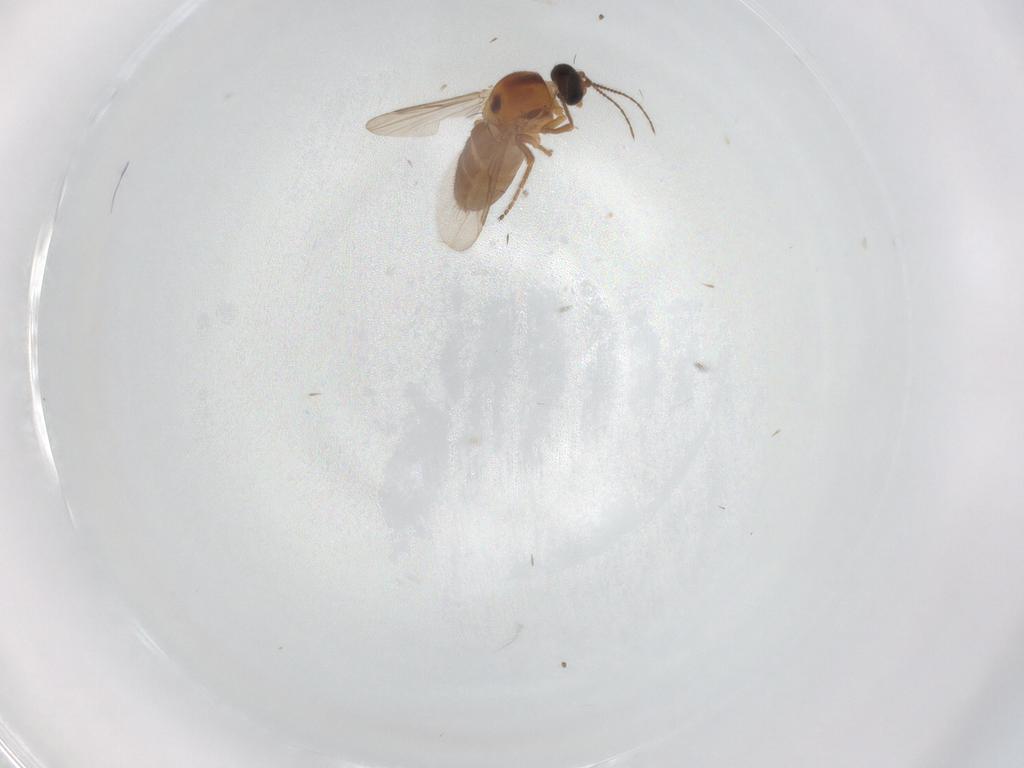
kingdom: Animalia
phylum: Arthropoda
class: Insecta
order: Diptera
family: Ceratopogonidae
